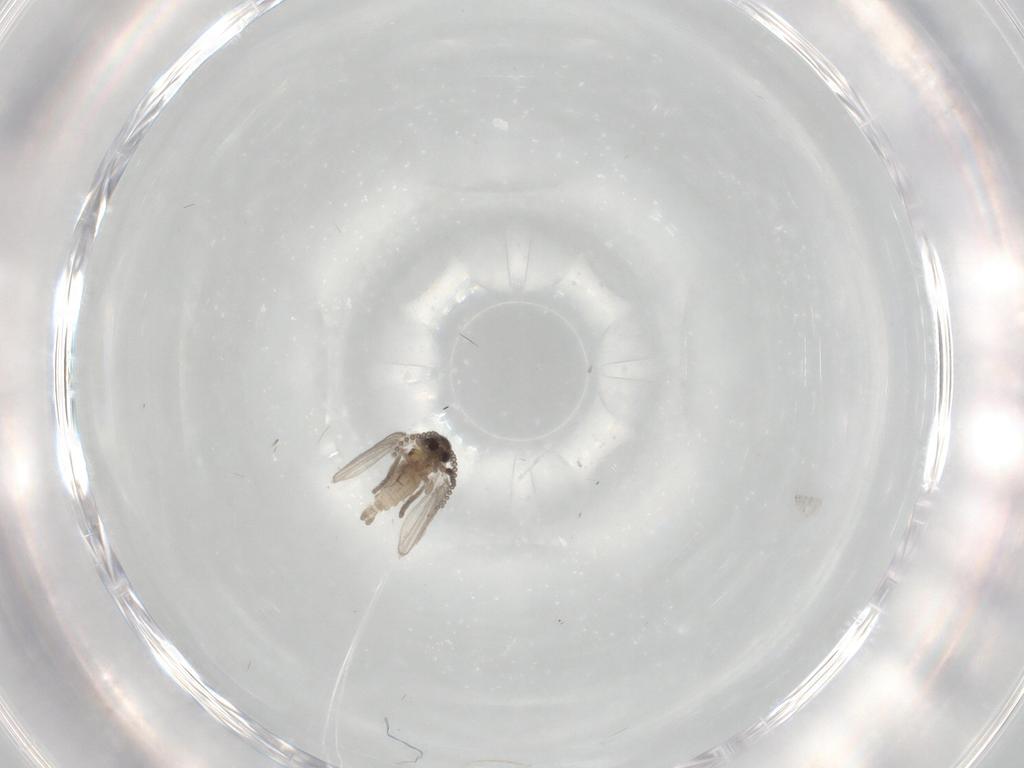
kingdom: Animalia
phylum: Arthropoda
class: Insecta
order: Diptera
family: Psychodidae
